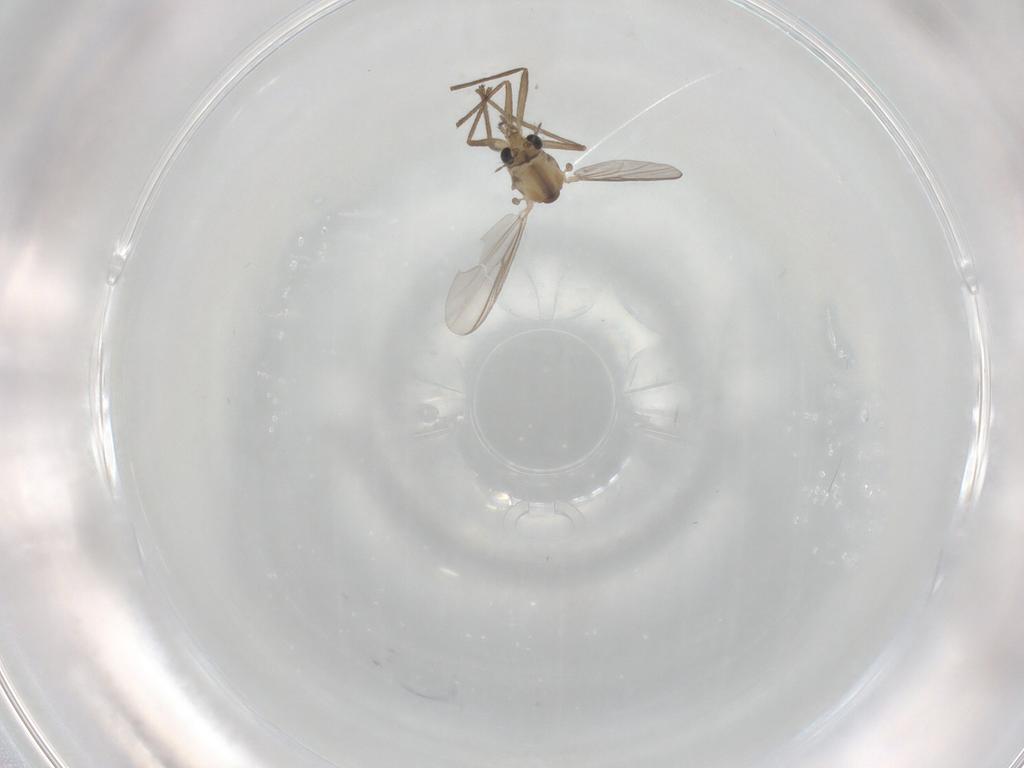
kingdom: Animalia
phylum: Arthropoda
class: Insecta
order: Diptera
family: Chironomidae
